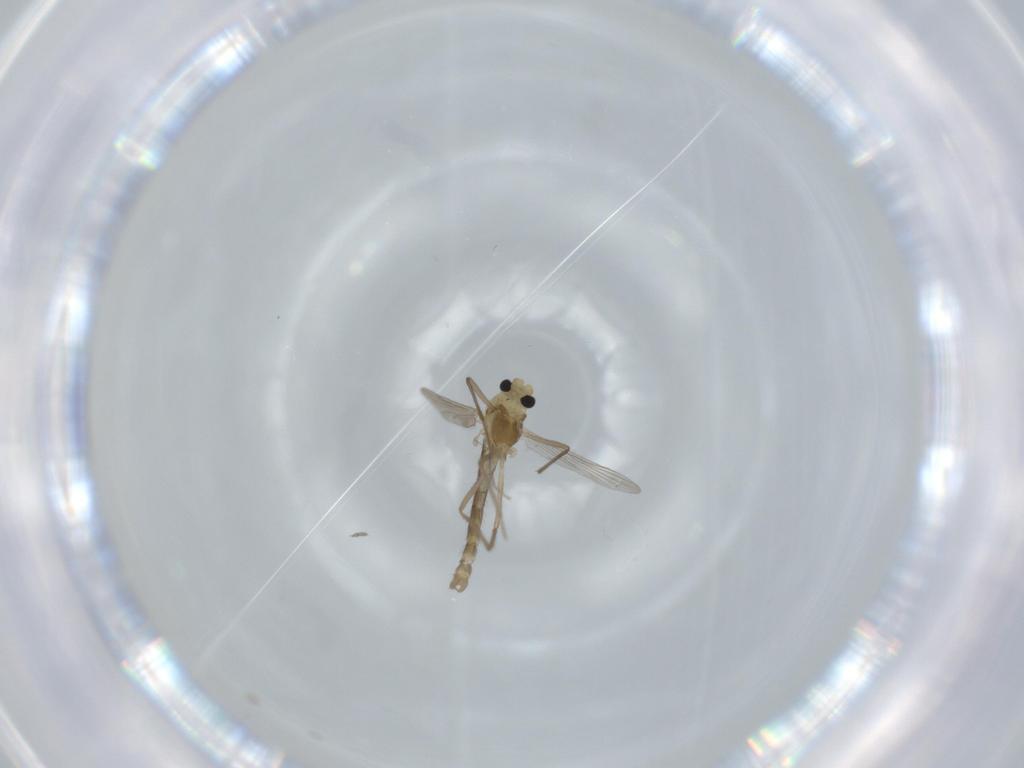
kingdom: Animalia
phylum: Arthropoda
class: Insecta
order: Diptera
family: Chironomidae
